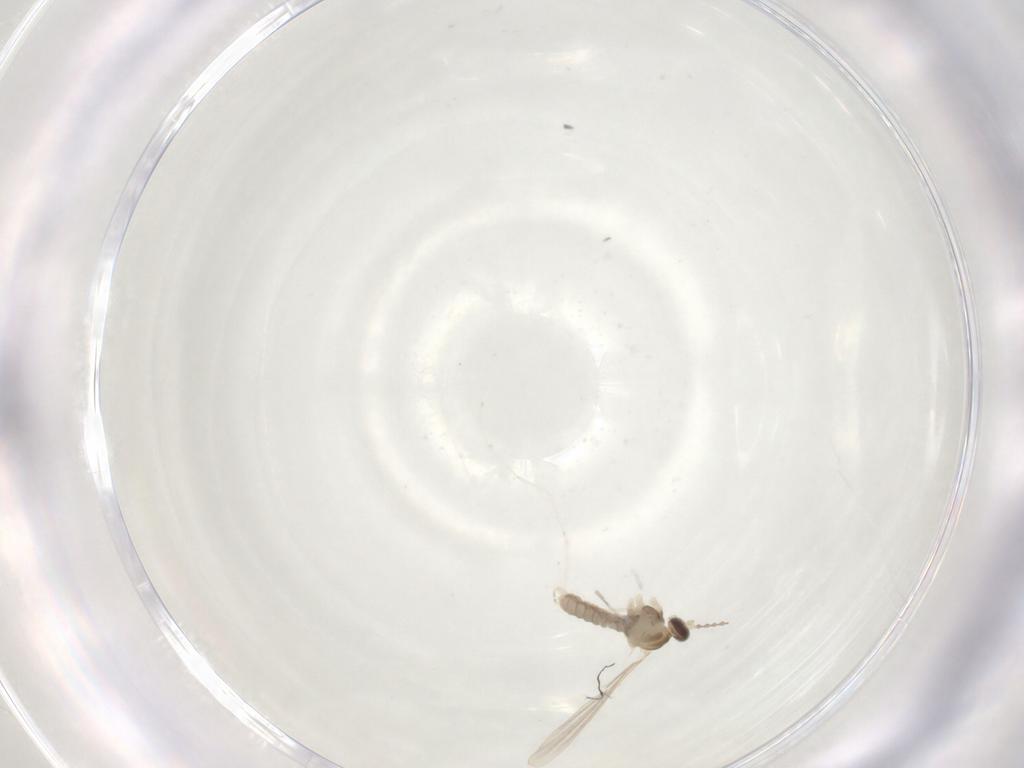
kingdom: Animalia
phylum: Arthropoda
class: Insecta
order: Diptera
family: Cecidomyiidae
